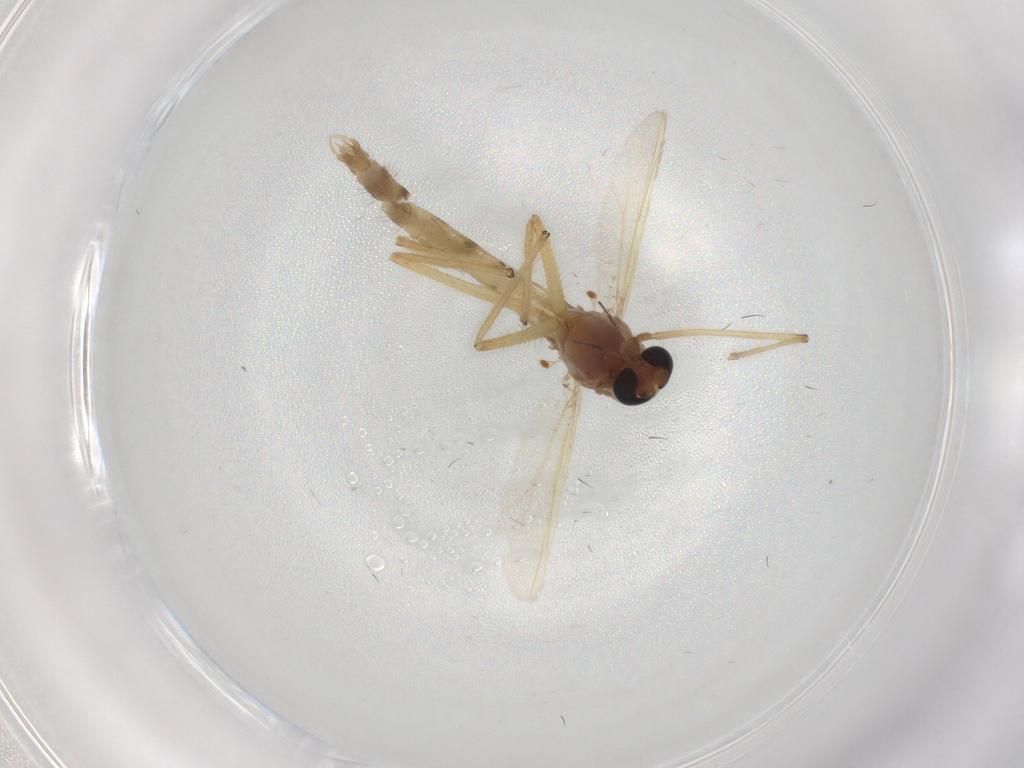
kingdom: Animalia
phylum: Arthropoda
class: Insecta
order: Diptera
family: Chironomidae
